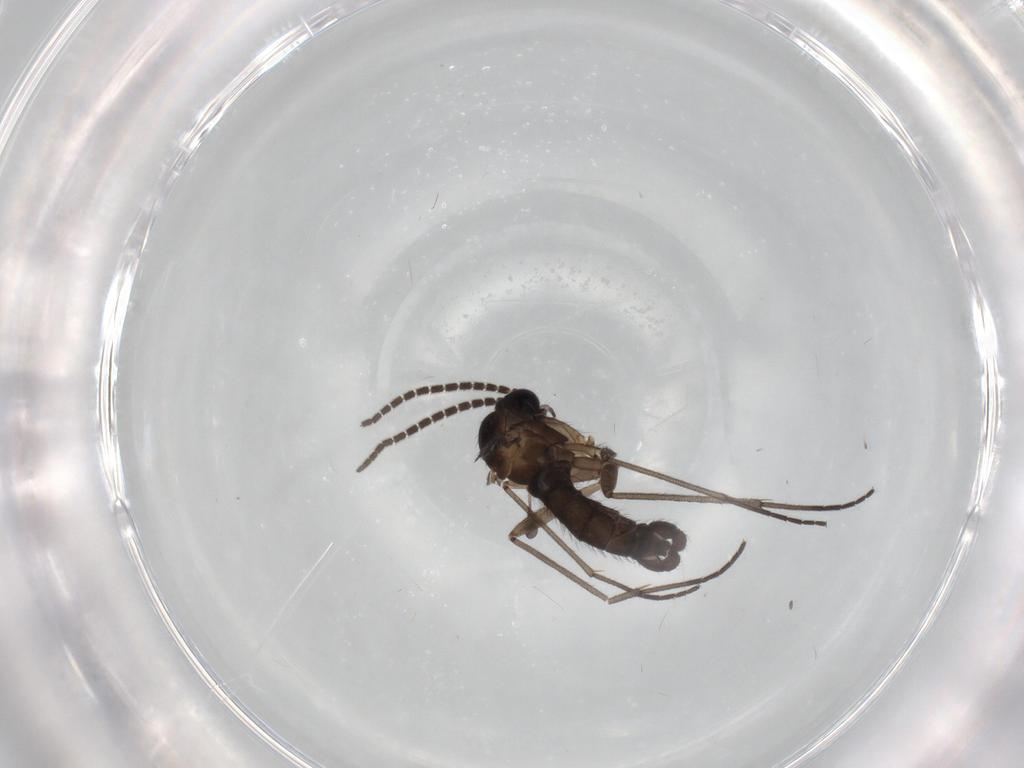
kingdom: Animalia
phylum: Arthropoda
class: Insecta
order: Diptera
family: Sciaridae
